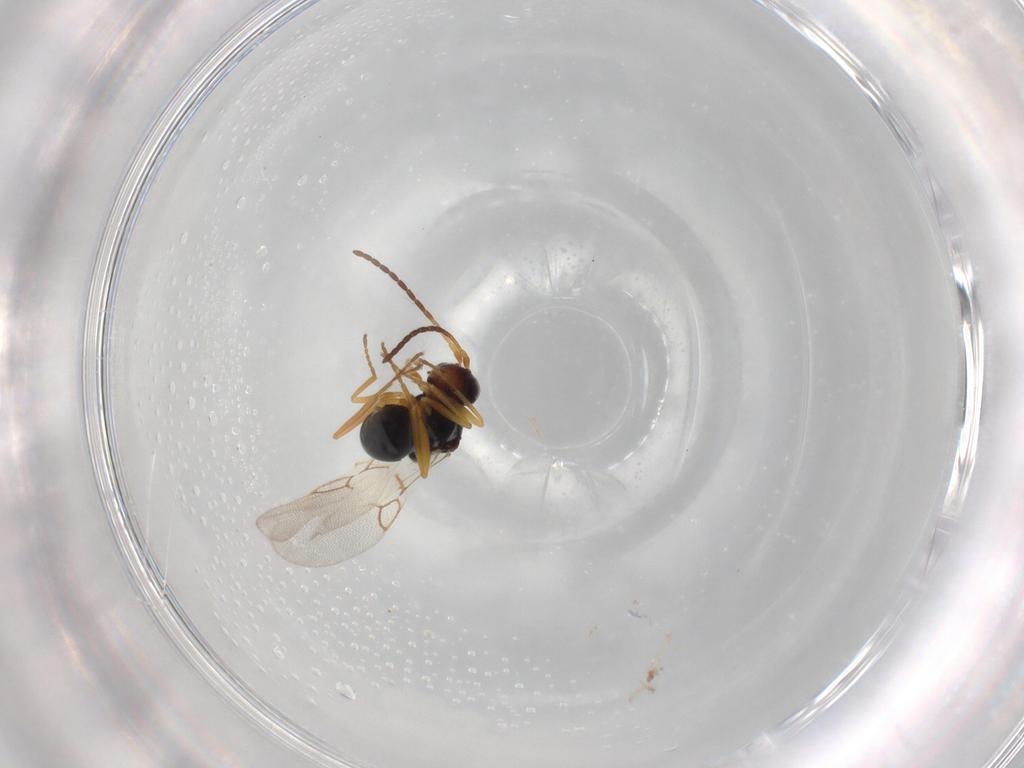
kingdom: Animalia
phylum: Arthropoda
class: Insecta
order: Hymenoptera
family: Figitidae
